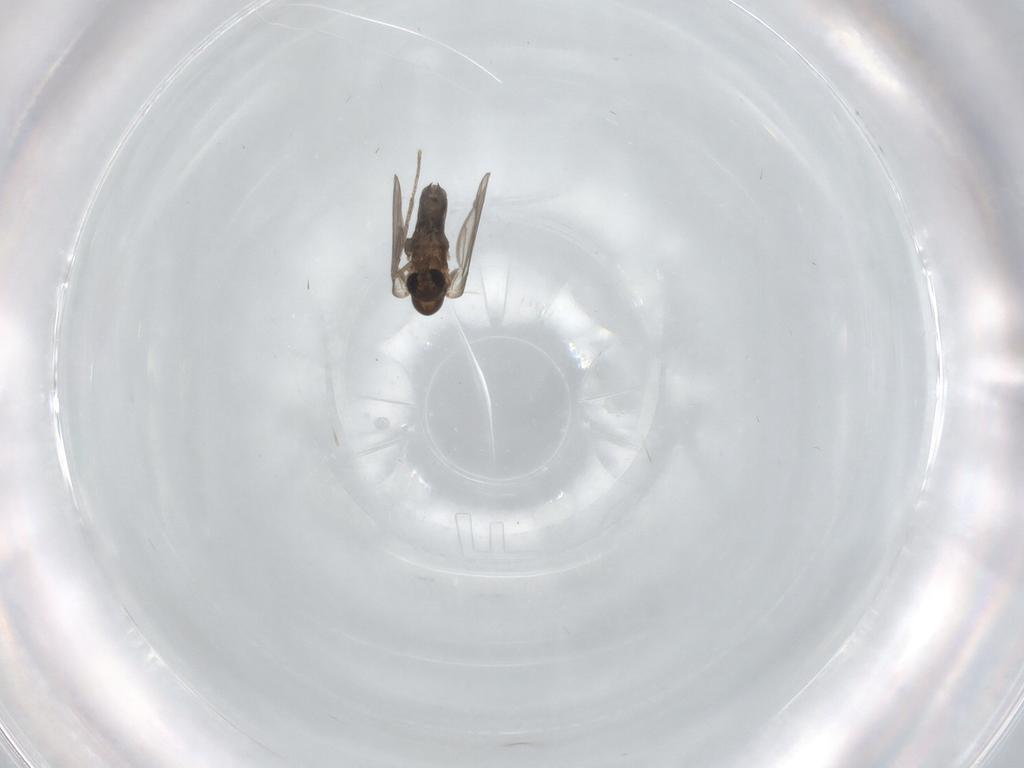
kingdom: Animalia
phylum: Arthropoda
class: Insecta
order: Diptera
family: Psychodidae
